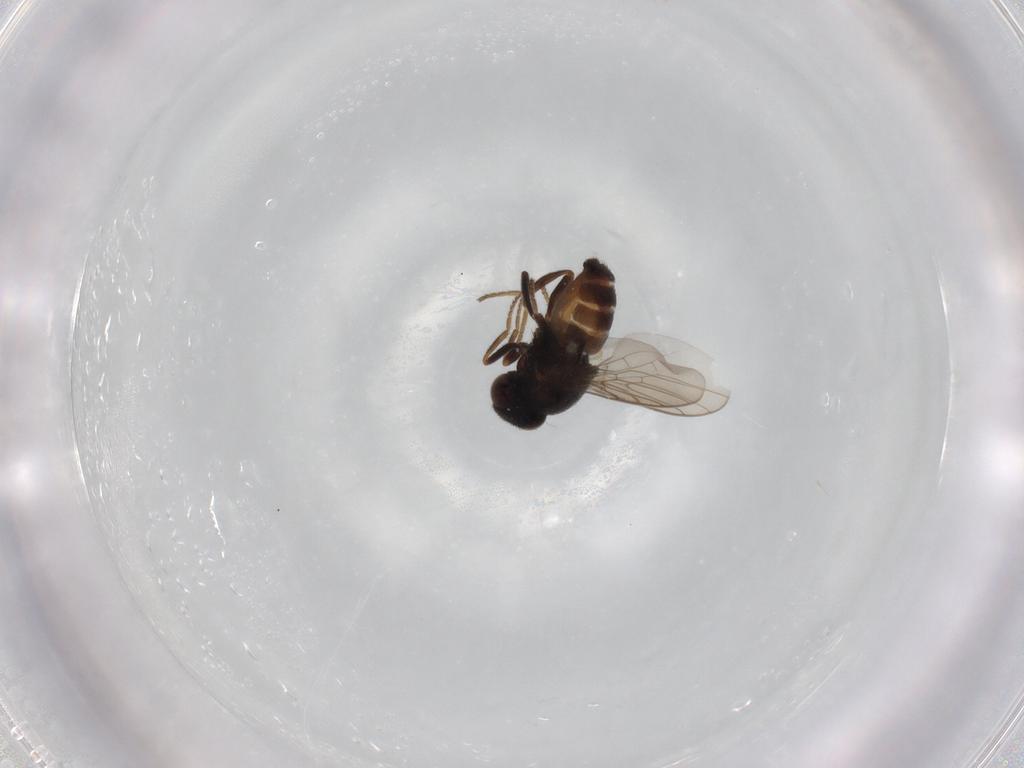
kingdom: Animalia
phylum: Arthropoda
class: Insecta
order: Diptera
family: Chloropidae
